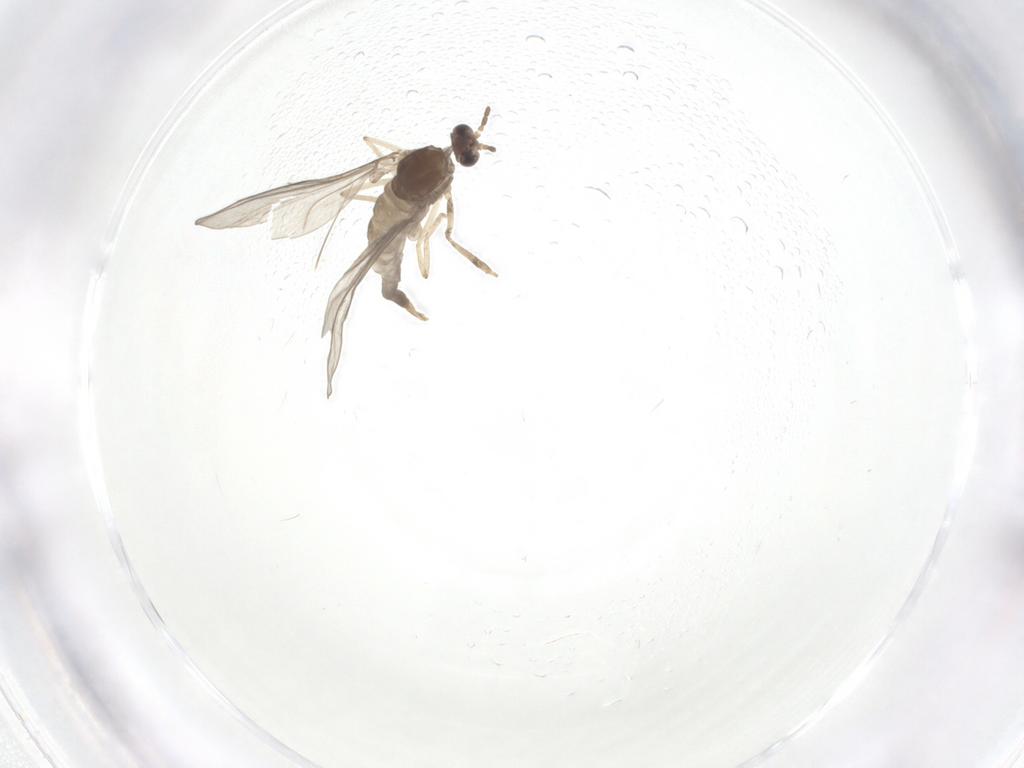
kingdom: Animalia
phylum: Arthropoda
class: Insecta
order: Diptera
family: Cecidomyiidae
